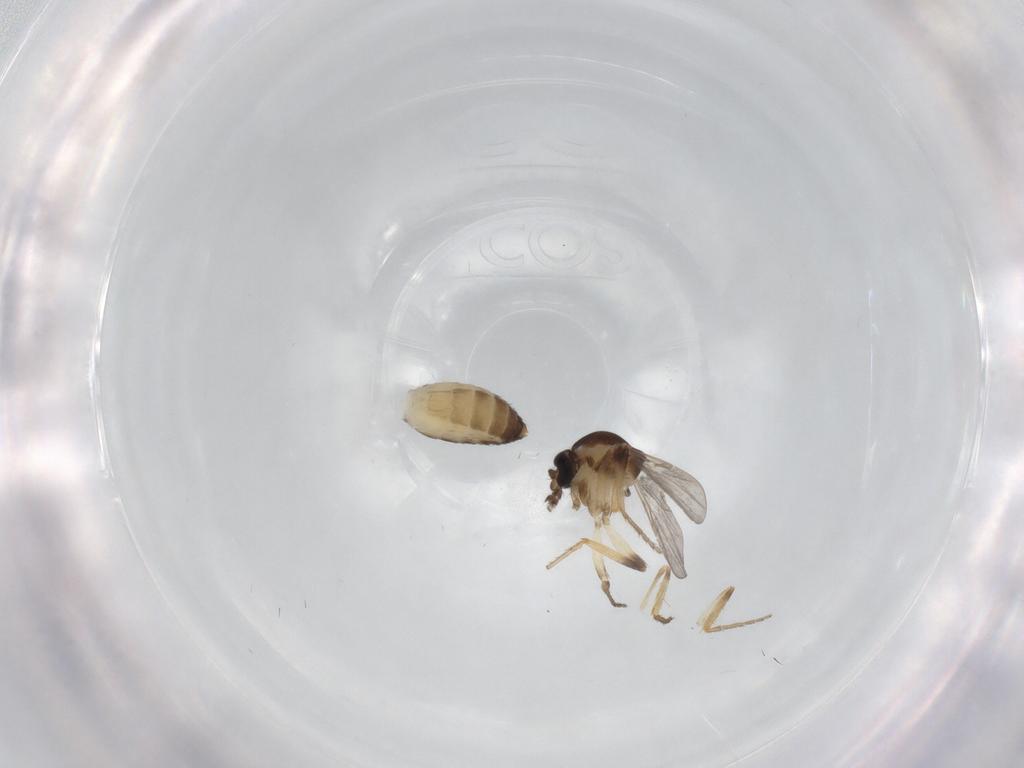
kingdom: Animalia
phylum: Arthropoda
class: Insecta
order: Diptera
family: Ceratopogonidae
